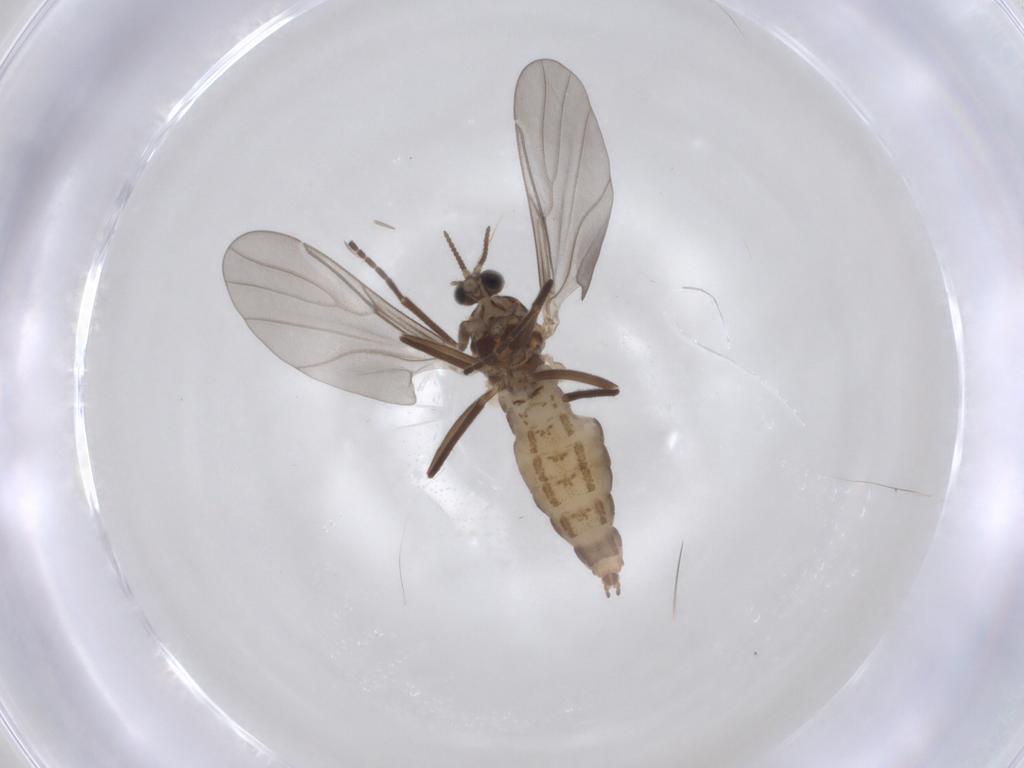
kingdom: Animalia
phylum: Arthropoda
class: Insecta
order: Diptera
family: Cecidomyiidae
